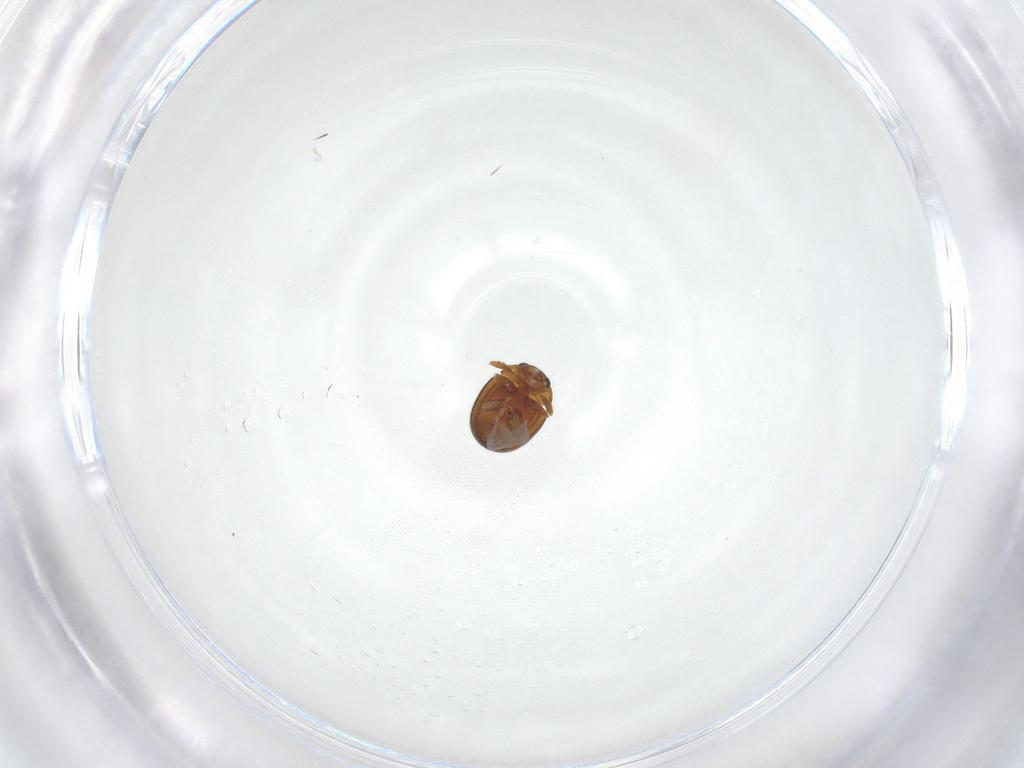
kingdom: Animalia
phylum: Arthropoda
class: Insecta
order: Coleoptera
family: Chrysomelidae
